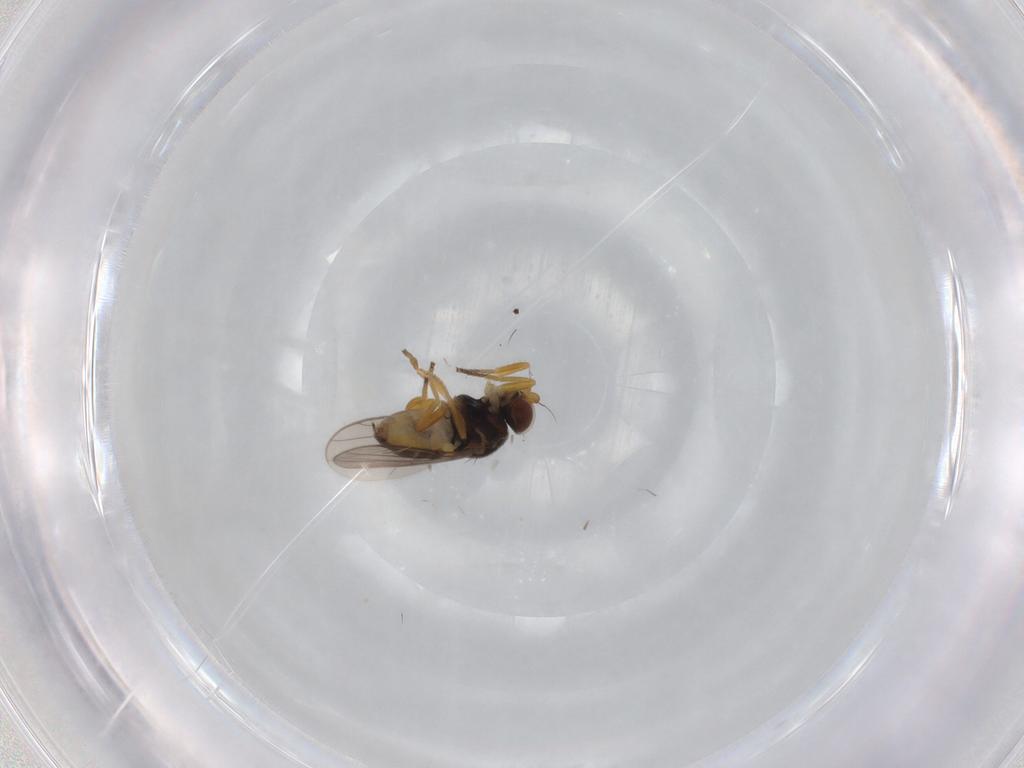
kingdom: Animalia
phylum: Arthropoda
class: Insecta
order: Diptera
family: Chloropidae
